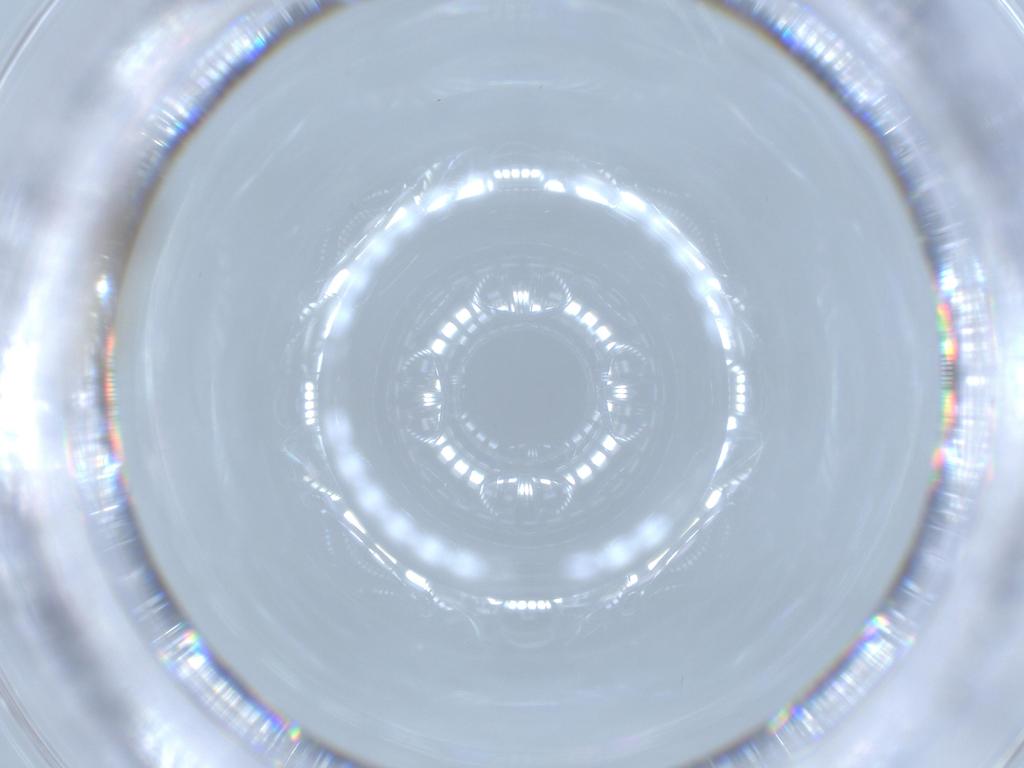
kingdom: Animalia
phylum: Arthropoda
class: Insecta
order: Diptera
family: Muscidae
